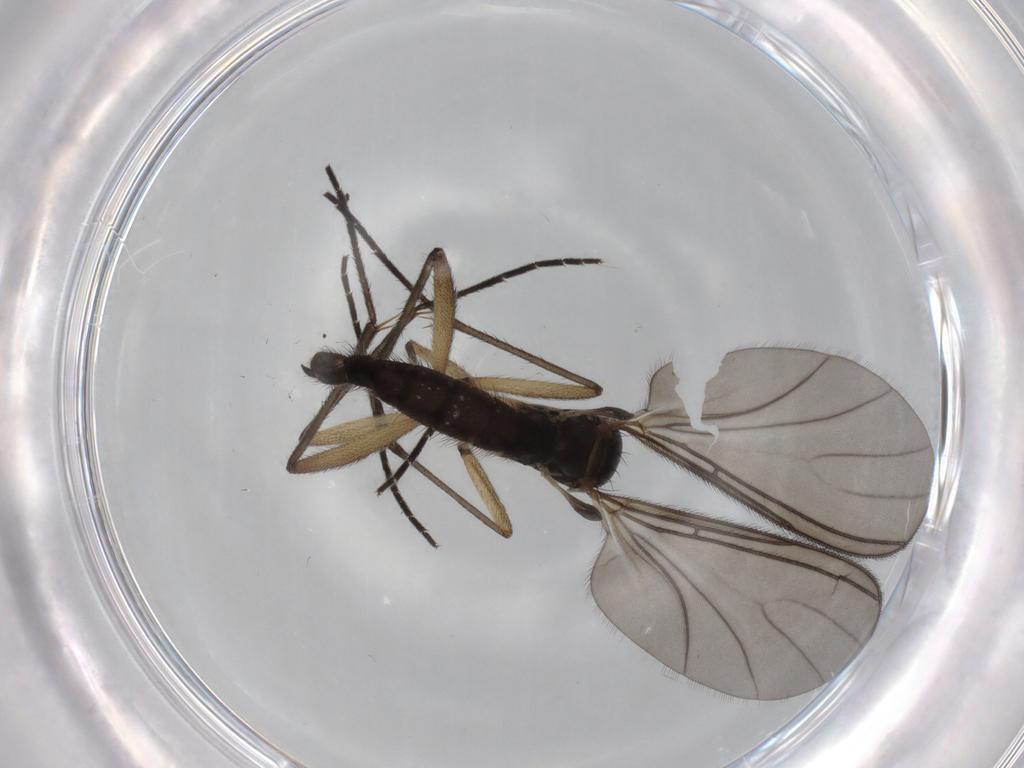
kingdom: Animalia
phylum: Arthropoda
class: Insecta
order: Diptera
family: Sciaridae
